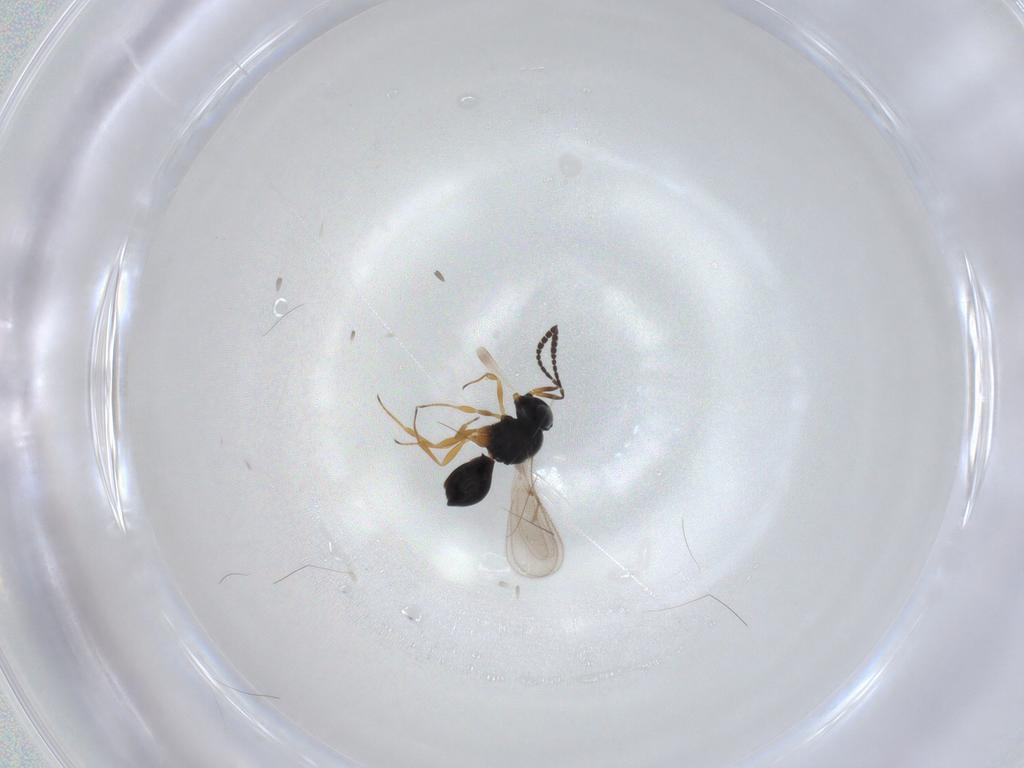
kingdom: Animalia
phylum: Arthropoda
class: Insecta
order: Hymenoptera
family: Scelionidae
